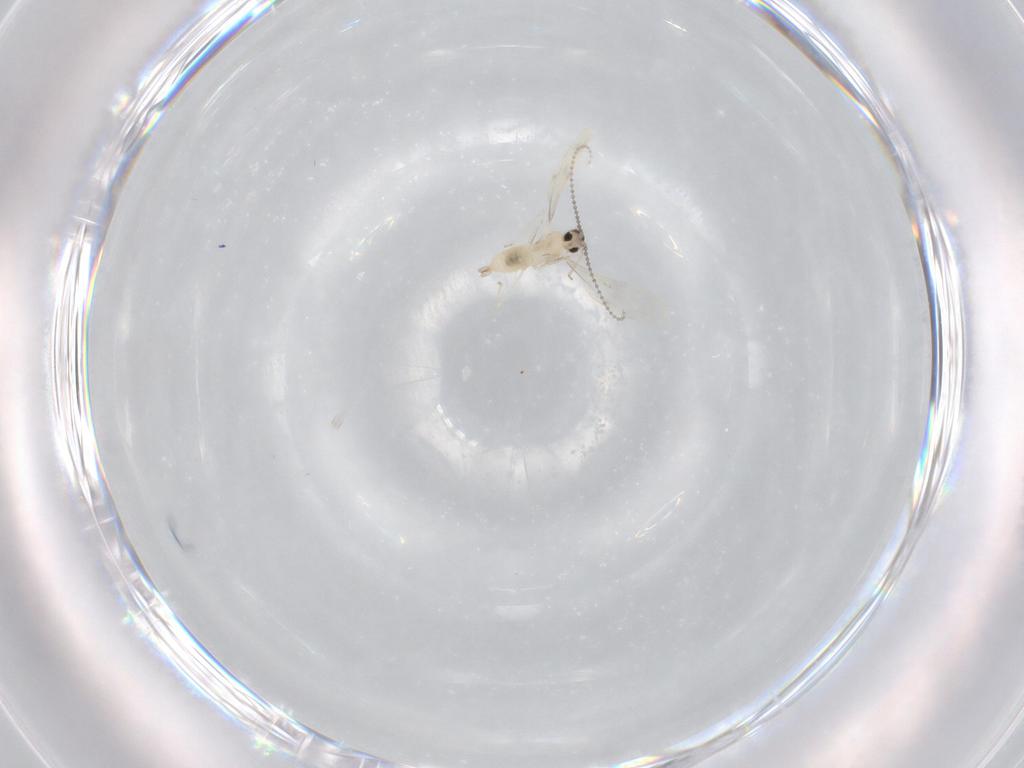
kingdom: Animalia
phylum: Arthropoda
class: Insecta
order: Diptera
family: Cecidomyiidae
